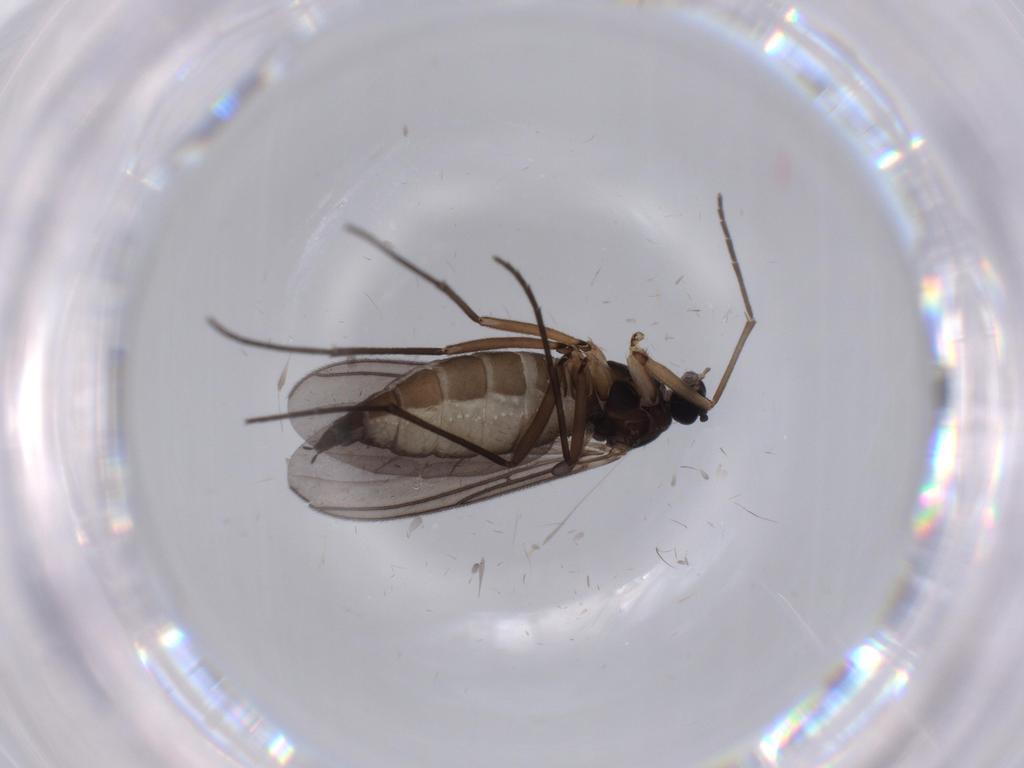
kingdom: Animalia
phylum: Arthropoda
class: Insecta
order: Diptera
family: Sciaridae
